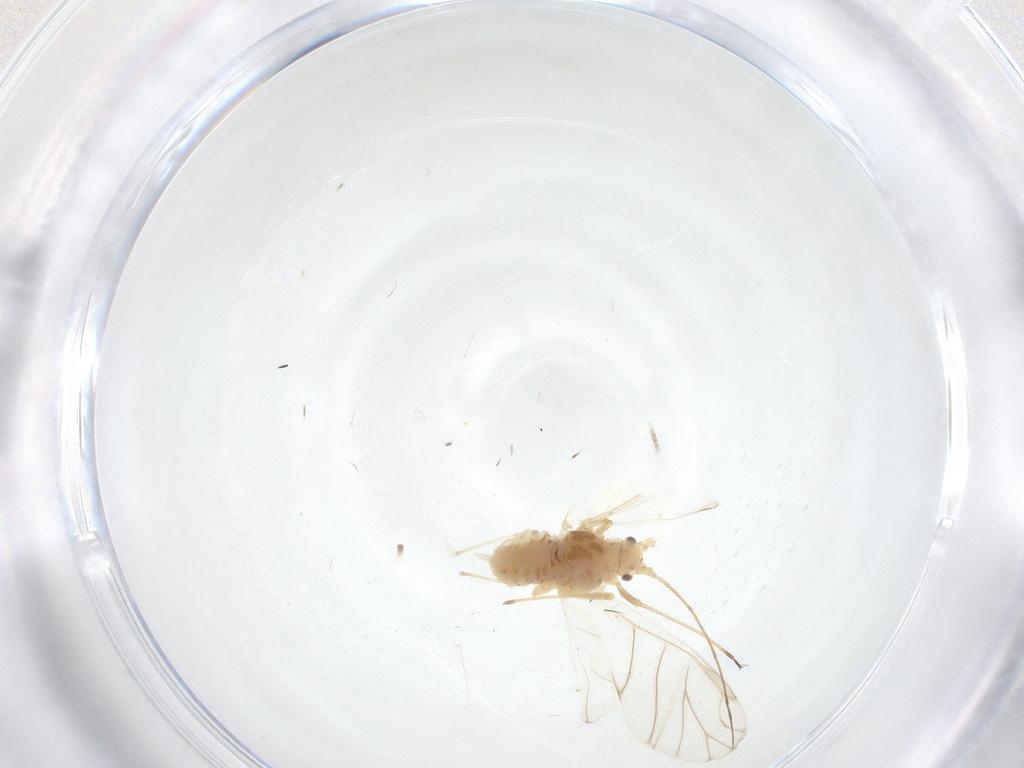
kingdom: Animalia
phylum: Arthropoda
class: Insecta
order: Hemiptera
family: Aphididae
